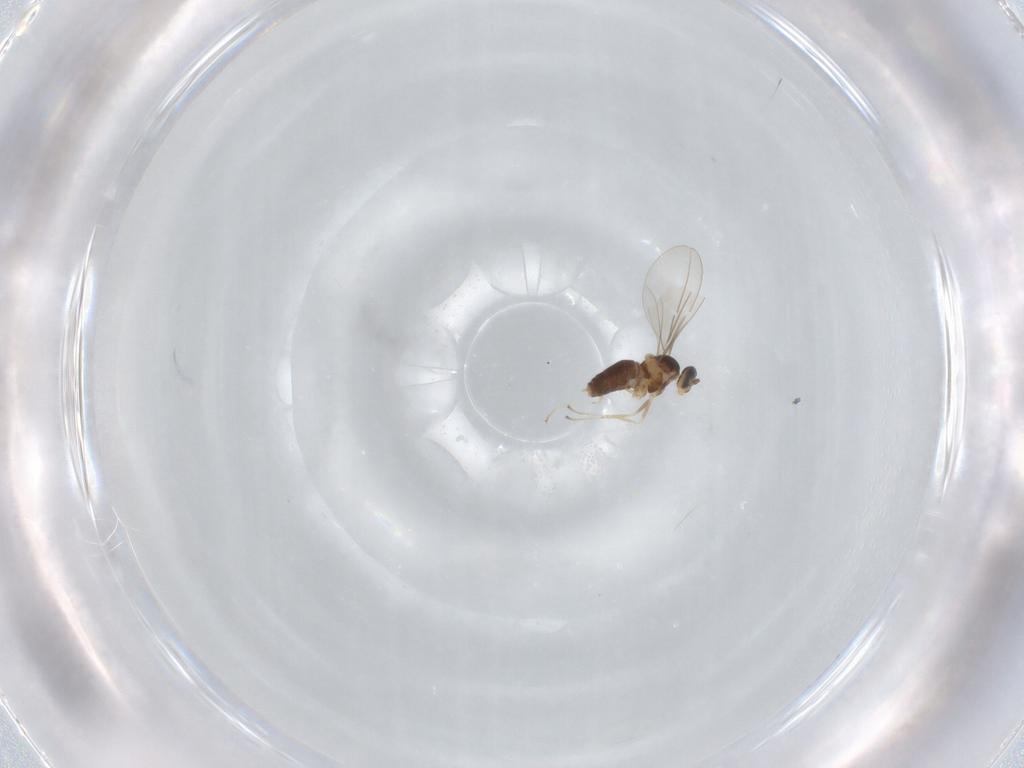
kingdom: Animalia
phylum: Arthropoda
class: Insecta
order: Diptera
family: Cecidomyiidae
